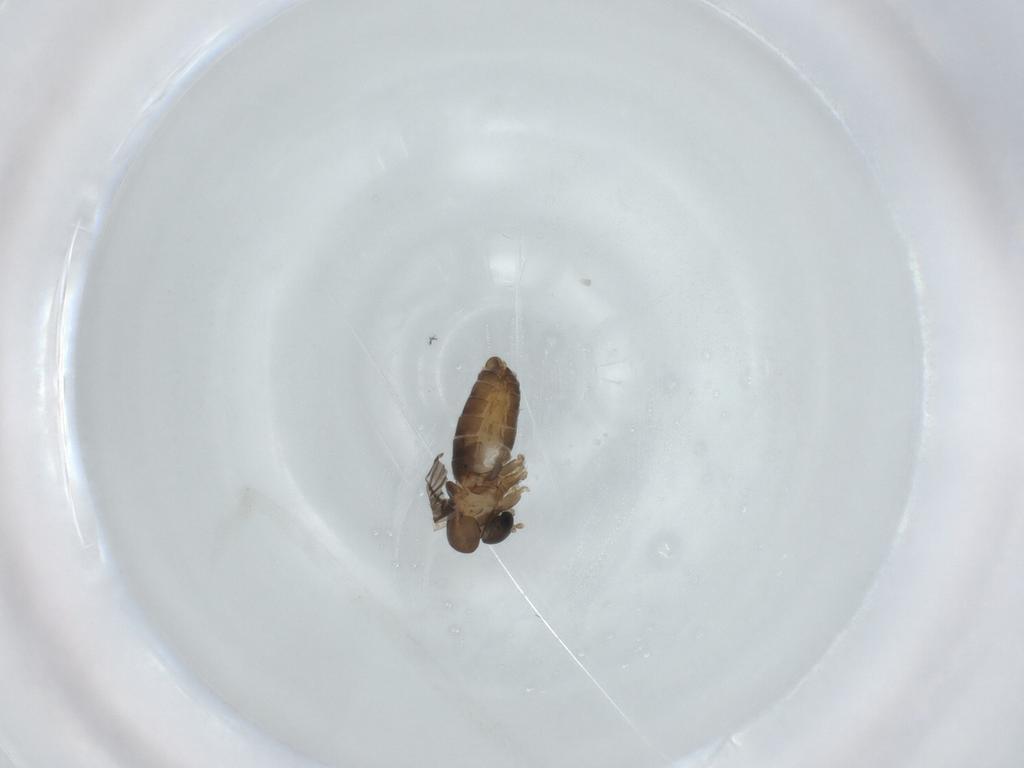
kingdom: Animalia
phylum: Arthropoda
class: Insecta
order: Diptera
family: Psychodidae
